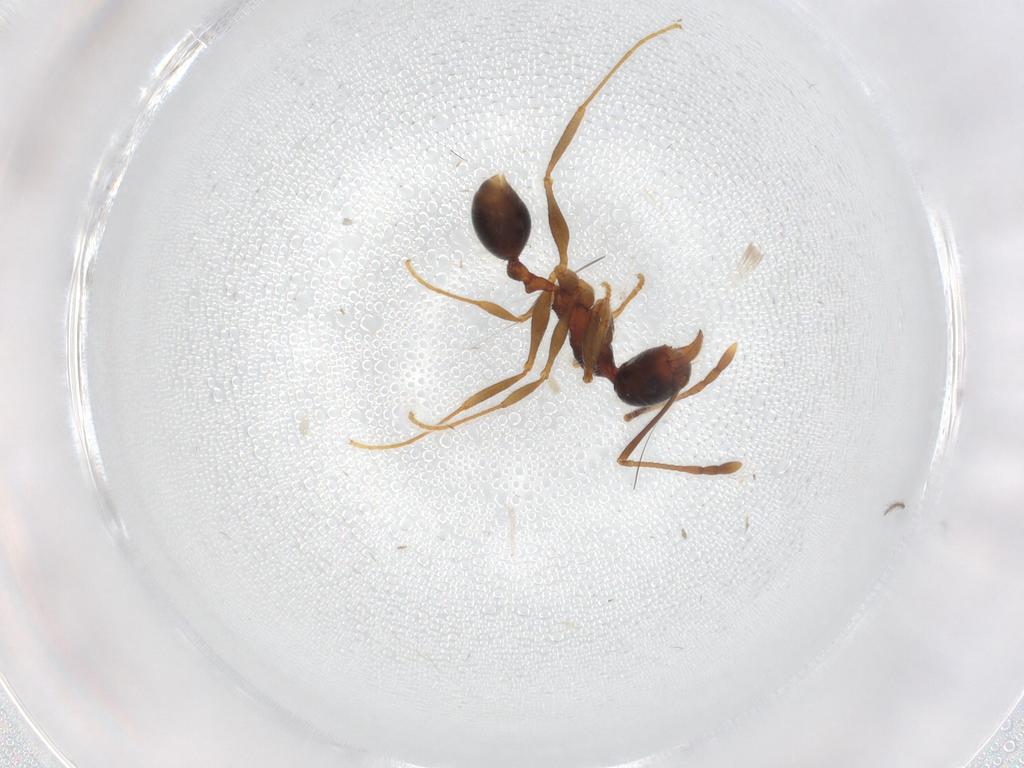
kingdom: Animalia
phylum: Arthropoda
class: Insecta
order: Hymenoptera
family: Formicidae
